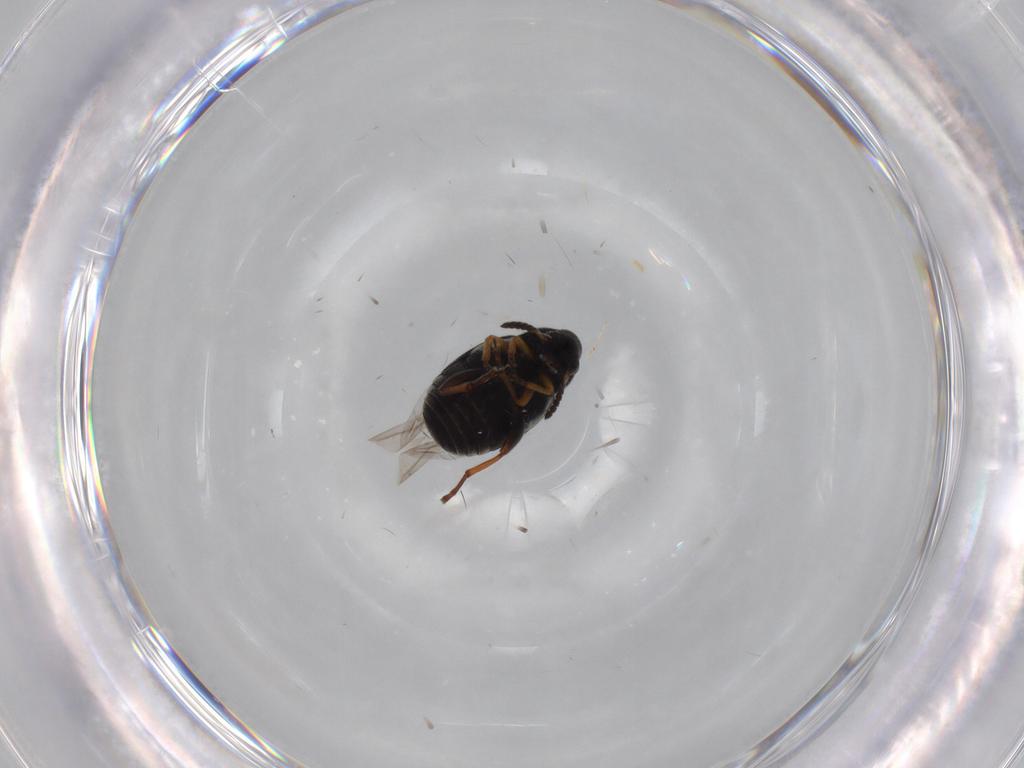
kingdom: Animalia
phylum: Arthropoda
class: Insecta
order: Coleoptera
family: Chrysomelidae
